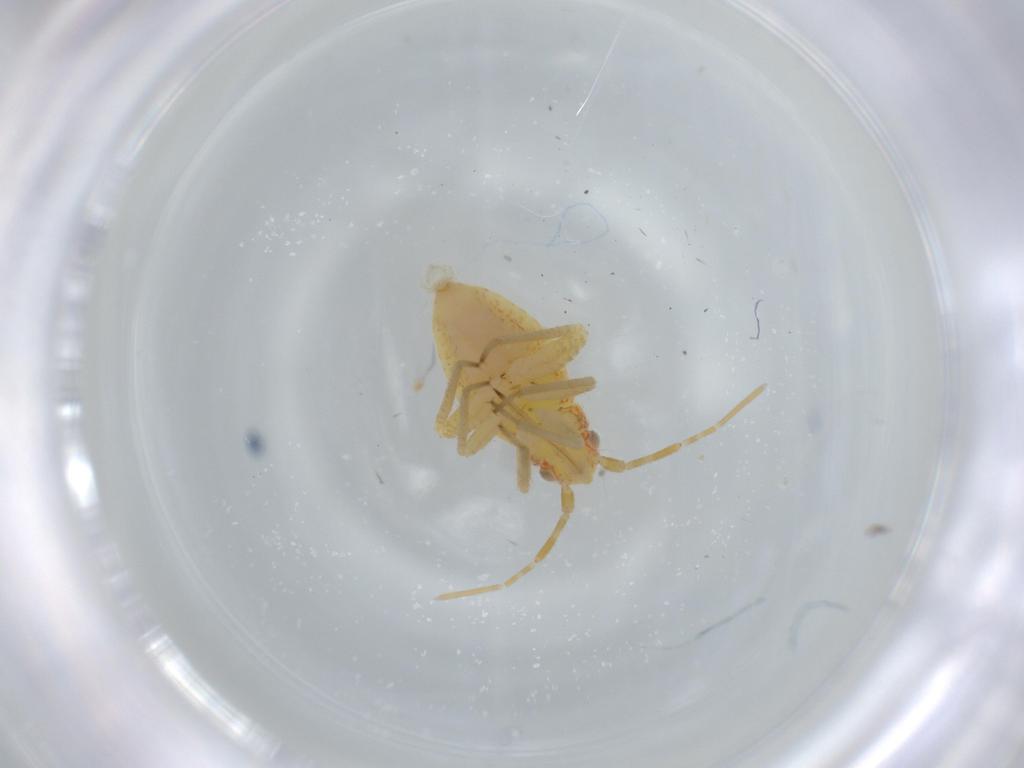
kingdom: Animalia
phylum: Arthropoda
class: Insecta
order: Hemiptera
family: Miridae
